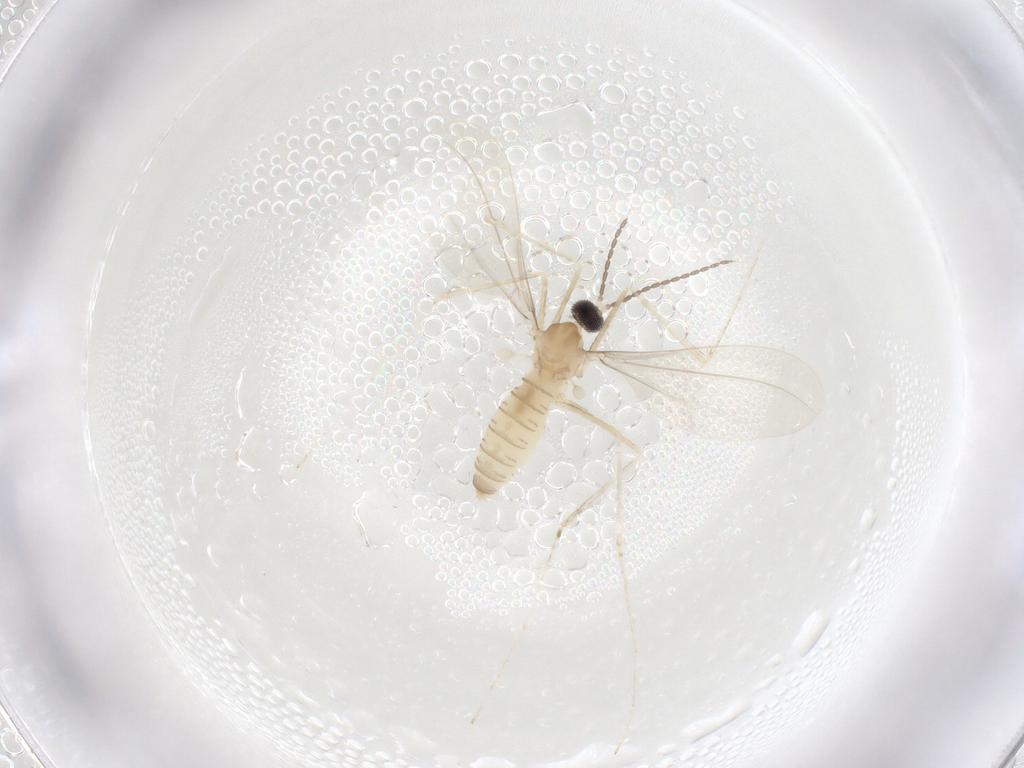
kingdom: Animalia
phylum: Arthropoda
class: Insecta
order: Diptera
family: Cecidomyiidae
